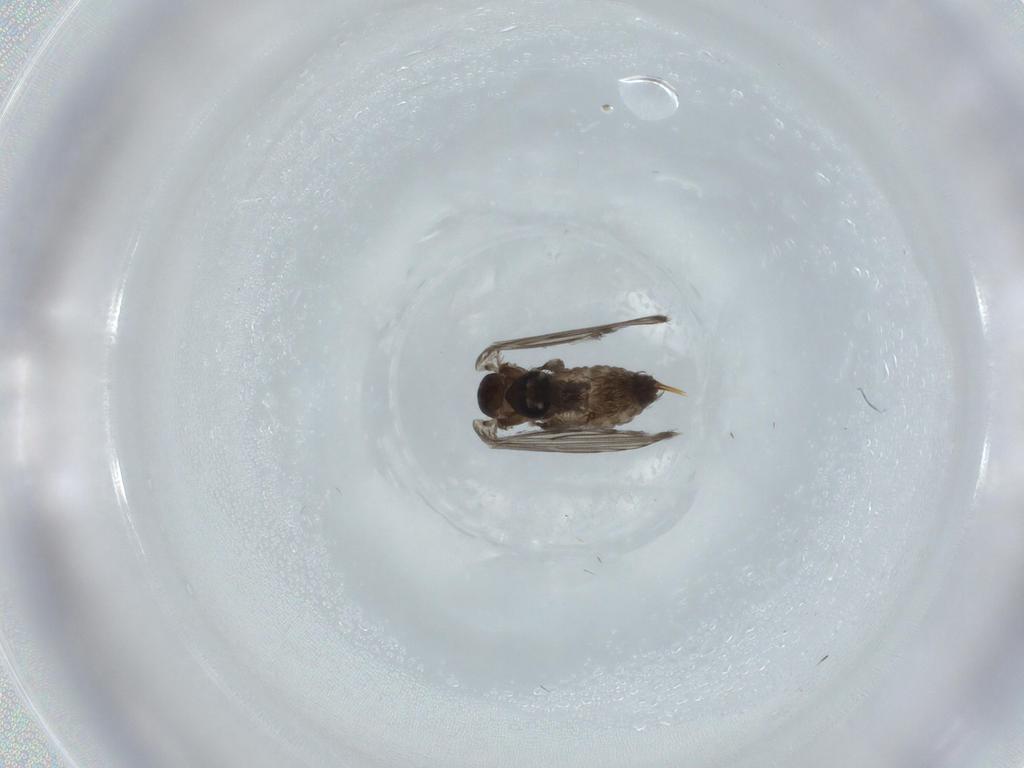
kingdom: Animalia
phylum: Arthropoda
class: Insecta
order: Diptera
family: Psychodidae
